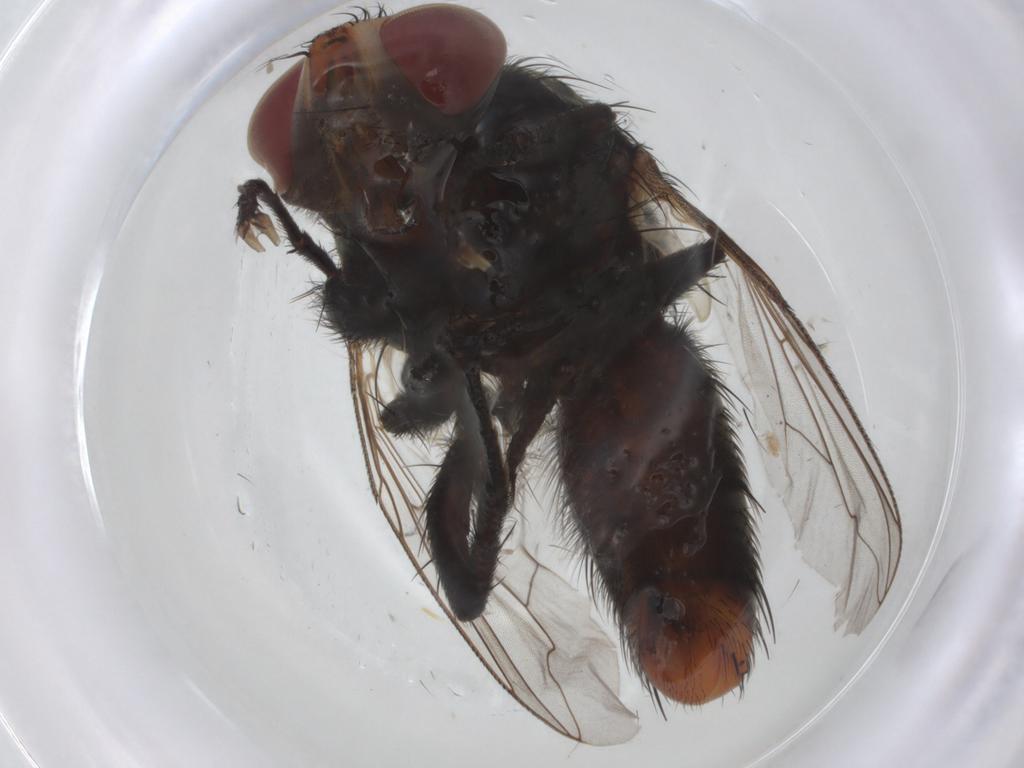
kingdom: Animalia
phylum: Arthropoda
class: Insecta
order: Diptera
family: Sarcophagidae
